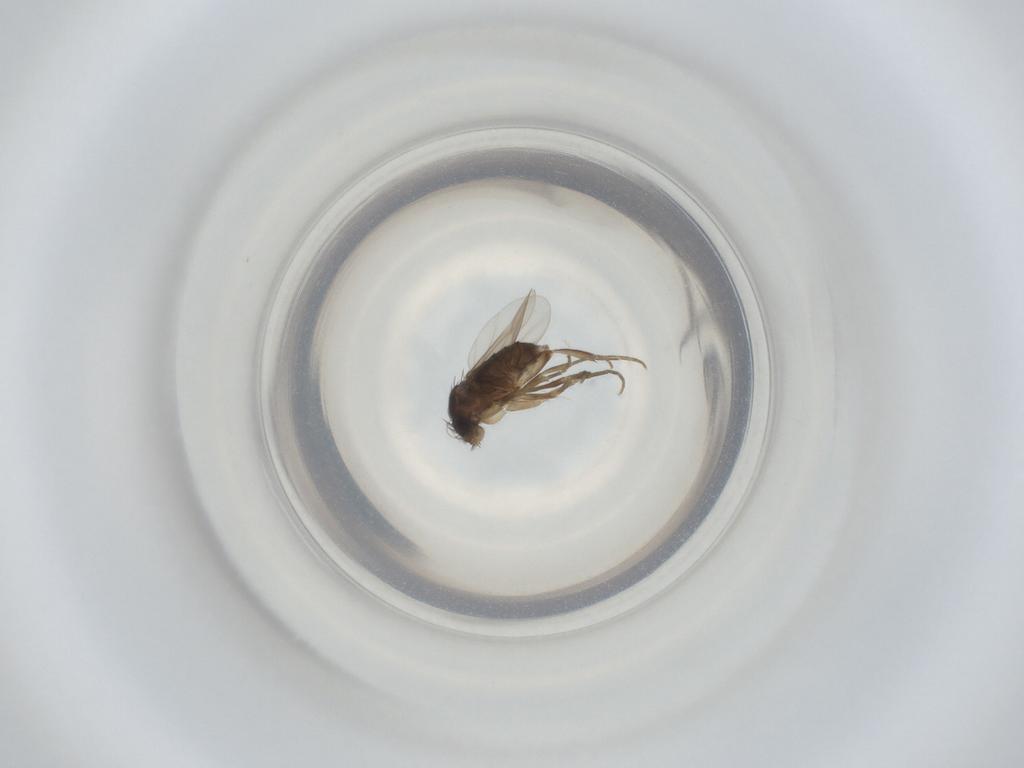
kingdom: Animalia
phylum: Arthropoda
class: Insecta
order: Diptera
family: Phoridae
